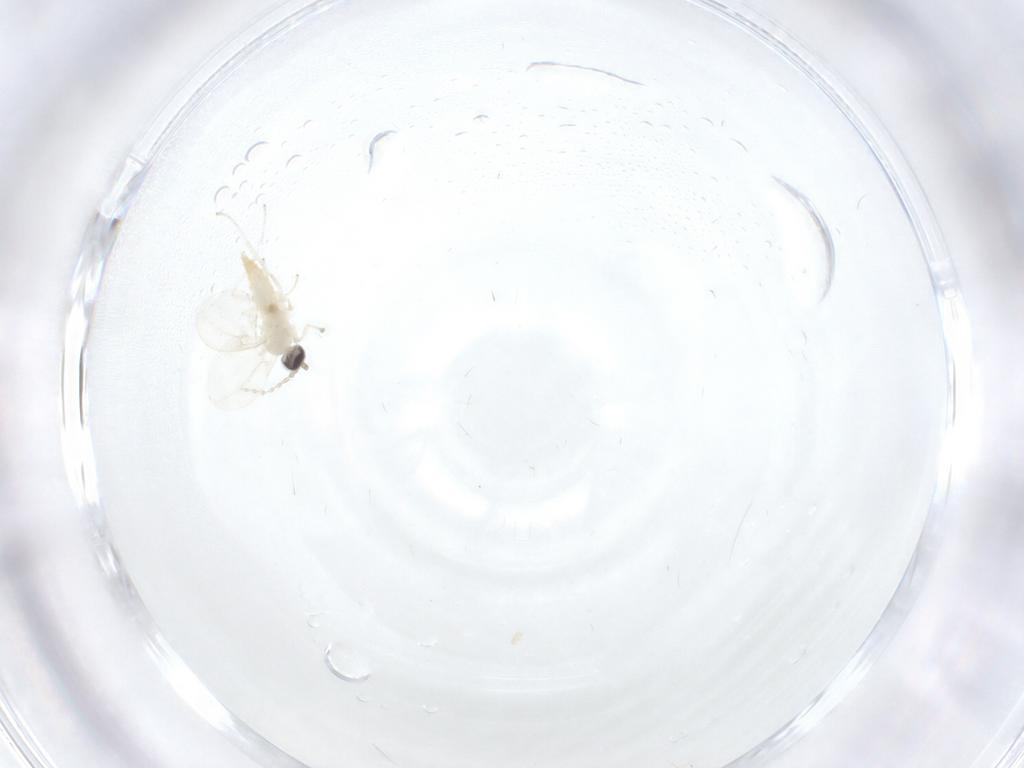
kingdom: Animalia
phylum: Arthropoda
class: Insecta
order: Diptera
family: Cecidomyiidae
